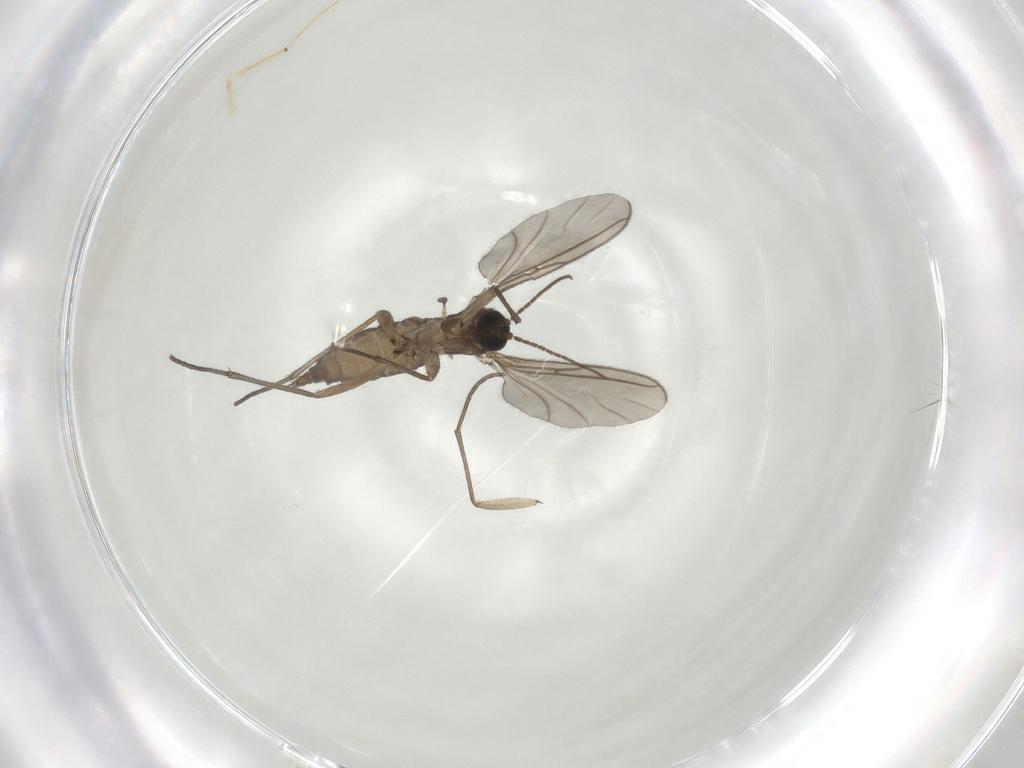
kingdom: Animalia
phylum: Arthropoda
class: Insecta
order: Diptera
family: Sciaridae
